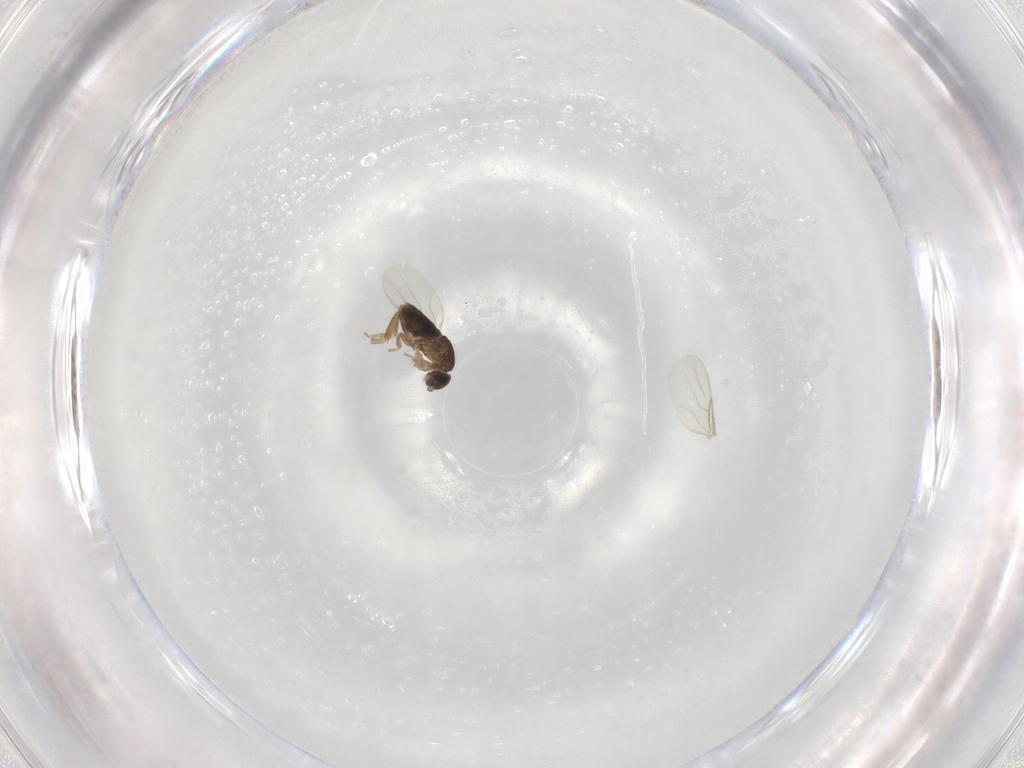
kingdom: Animalia
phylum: Arthropoda
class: Insecta
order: Diptera
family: Phoridae
